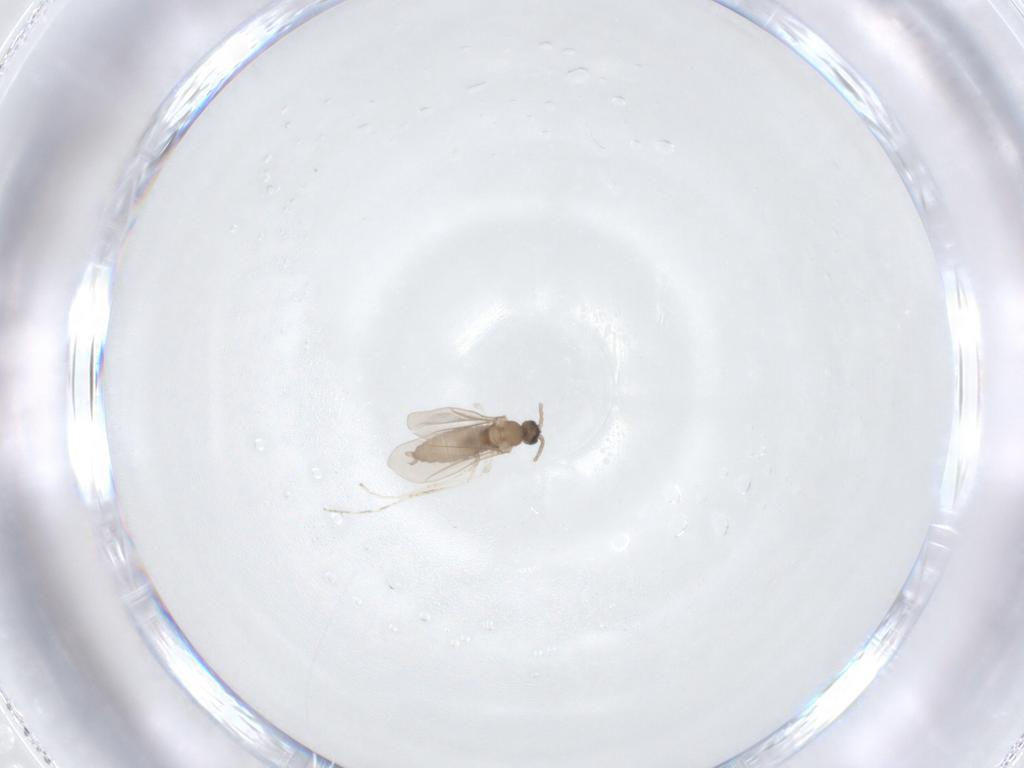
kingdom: Animalia
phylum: Arthropoda
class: Insecta
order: Diptera
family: Cecidomyiidae
